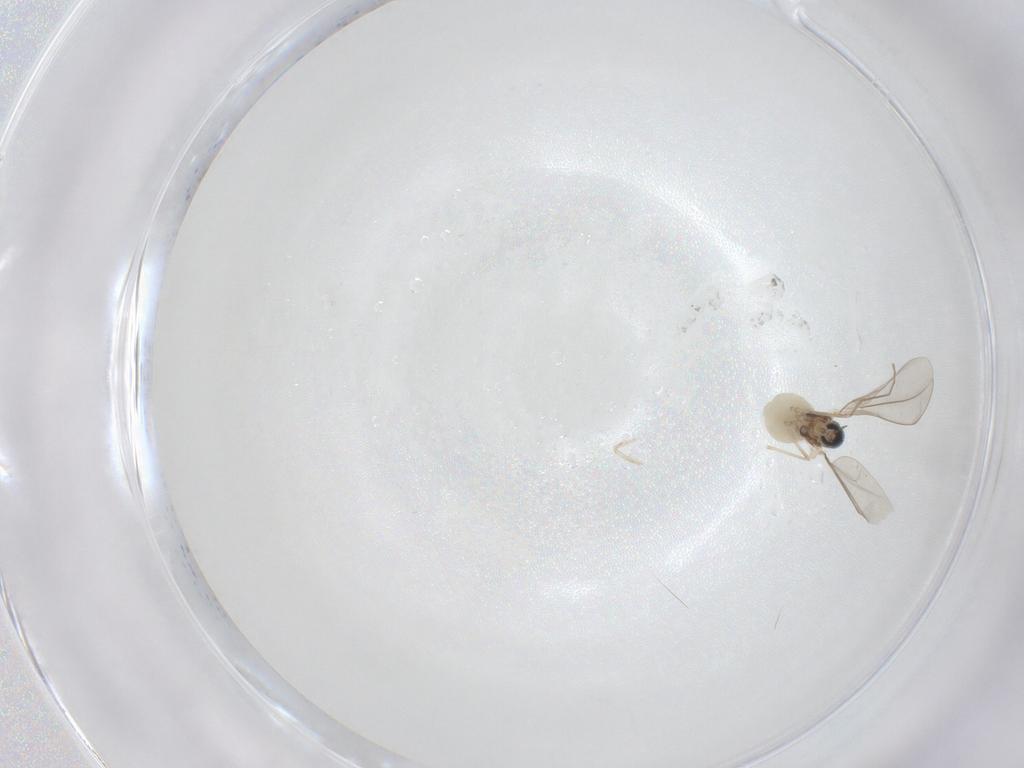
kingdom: Animalia
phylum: Arthropoda
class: Insecta
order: Diptera
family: Cecidomyiidae
